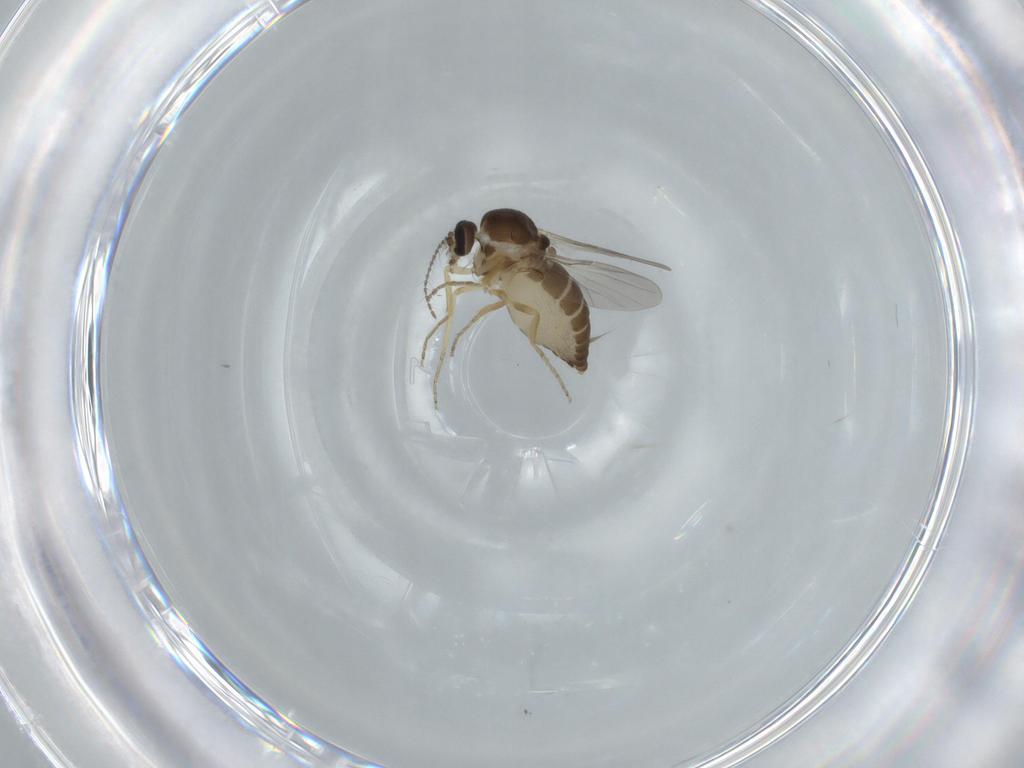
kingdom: Animalia
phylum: Arthropoda
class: Insecta
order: Diptera
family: Ceratopogonidae
